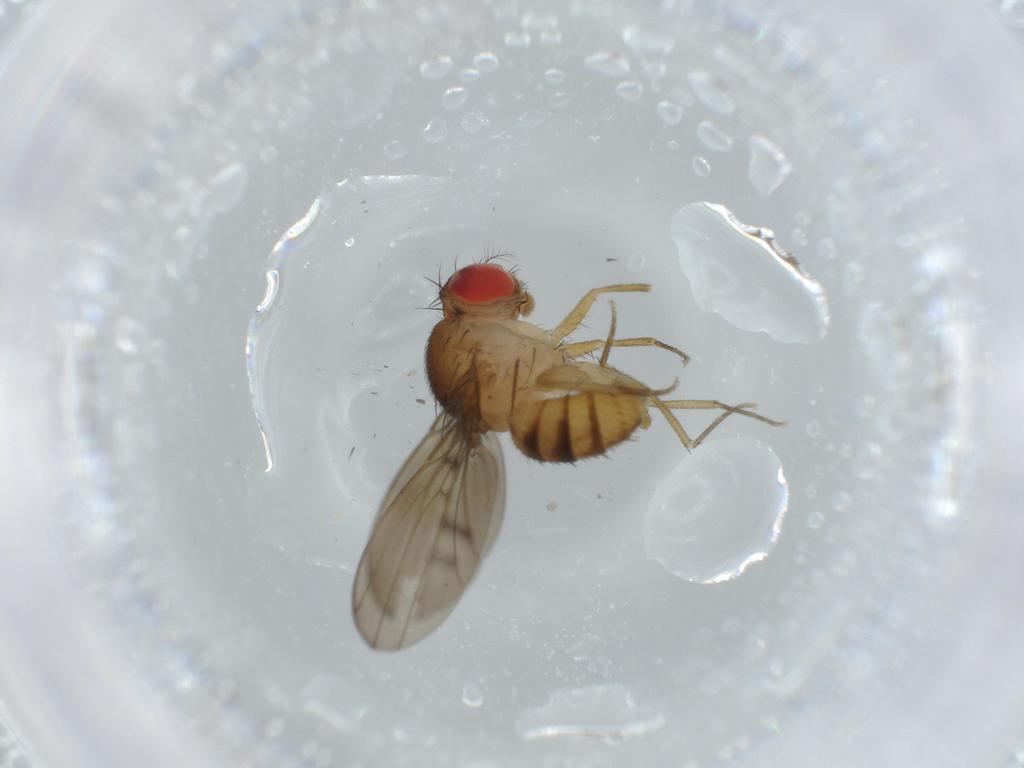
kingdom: Animalia
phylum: Arthropoda
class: Insecta
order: Diptera
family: Drosophilidae
